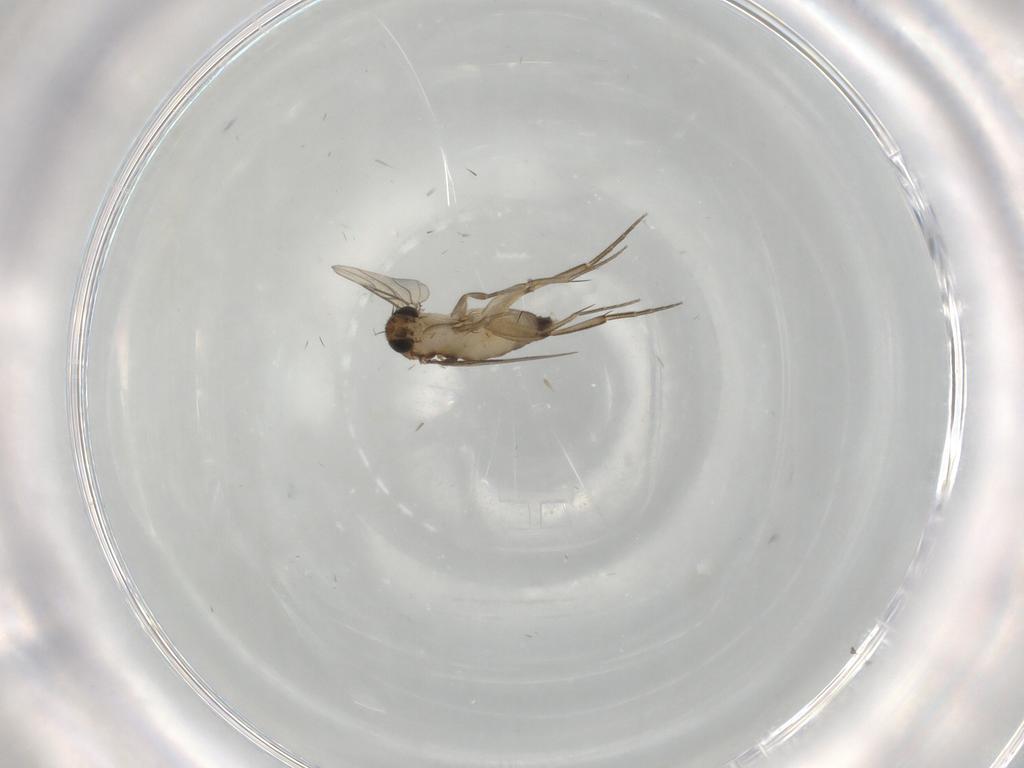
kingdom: Animalia
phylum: Arthropoda
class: Insecta
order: Diptera
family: Phoridae
